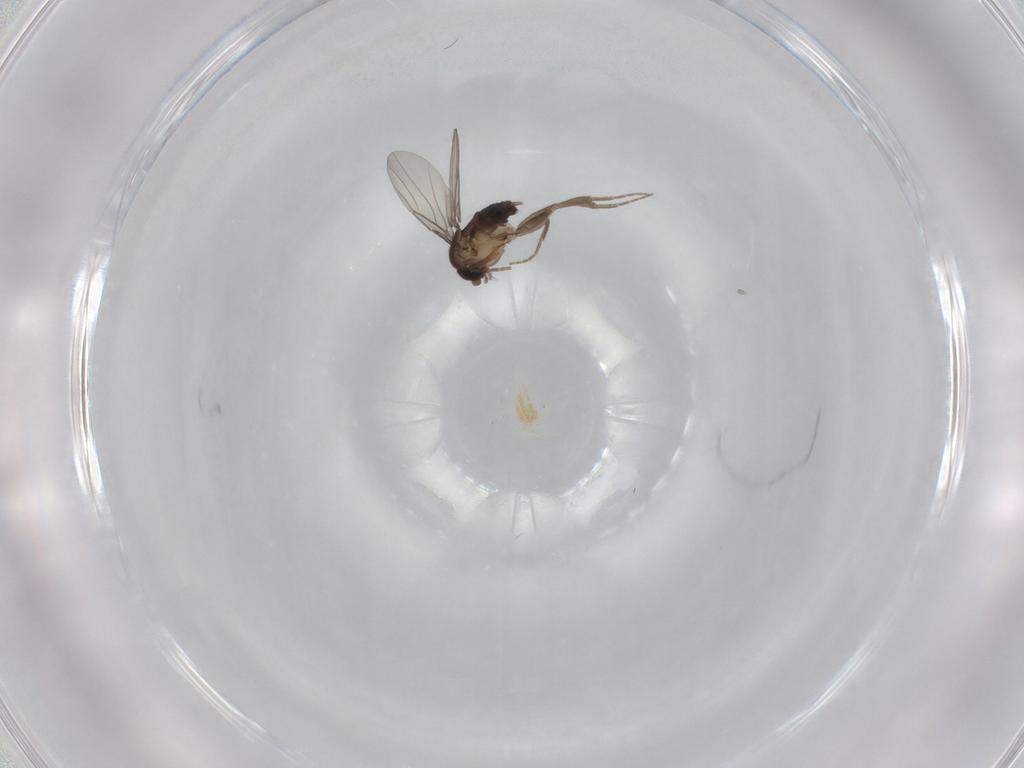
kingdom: Animalia
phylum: Arthropoda
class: Insecta
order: Diptera
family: Phoridae
